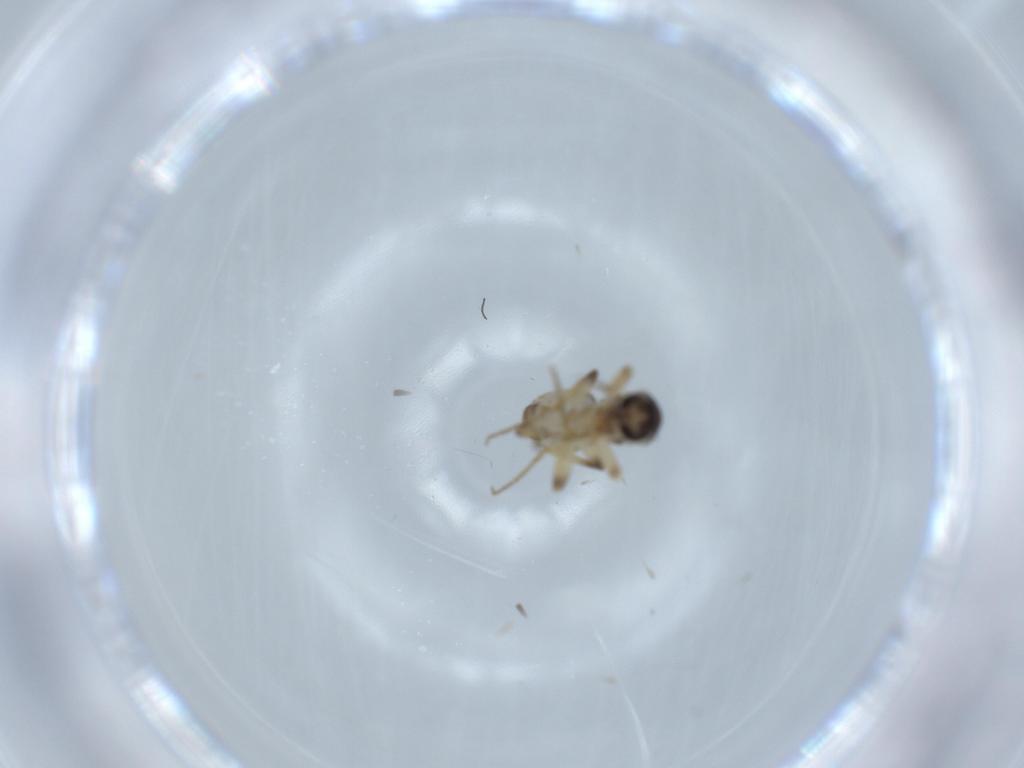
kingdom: Animalia
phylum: Arthropoda
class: Insecta
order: Diptera
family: Ceratopogonidae
